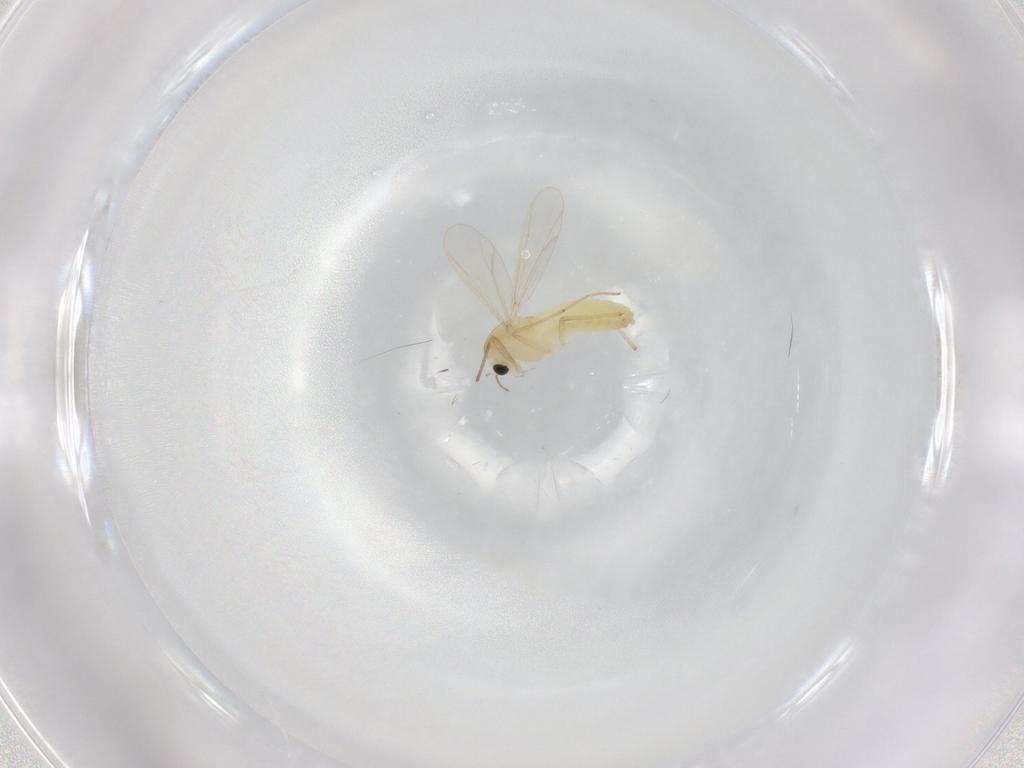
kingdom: Animalia
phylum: Arthropoda
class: Insecta
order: Diptera
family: Chironomidae
